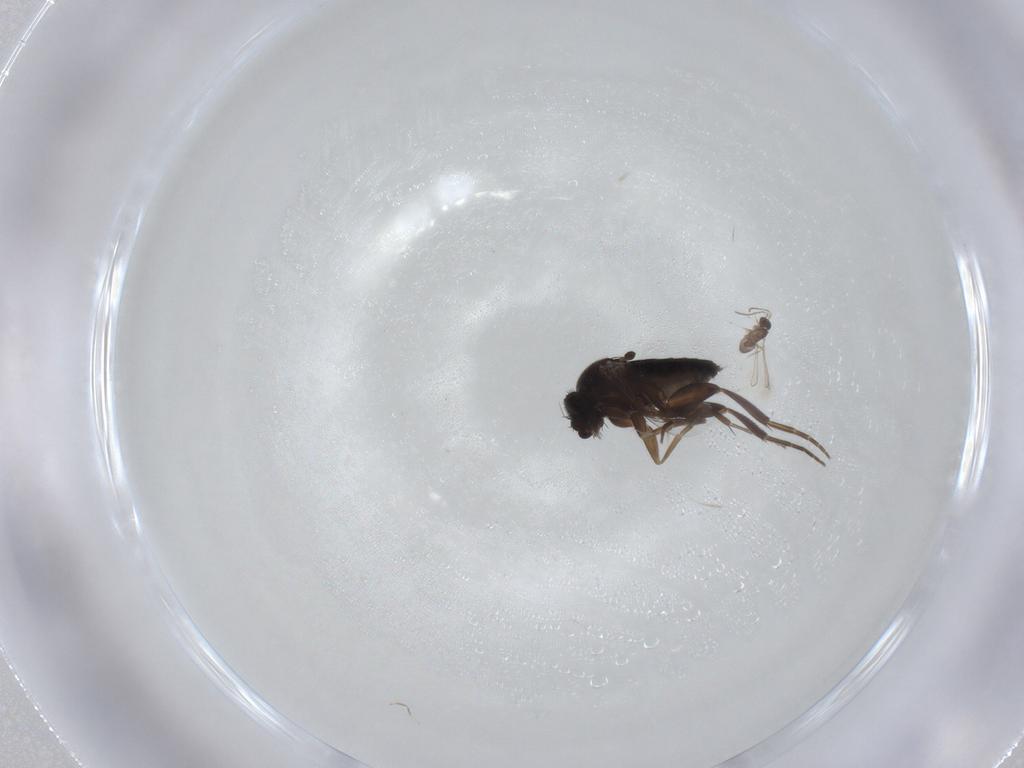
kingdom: Animalia
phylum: Arthropoda
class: Insecta
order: Diptera
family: Phoridae
